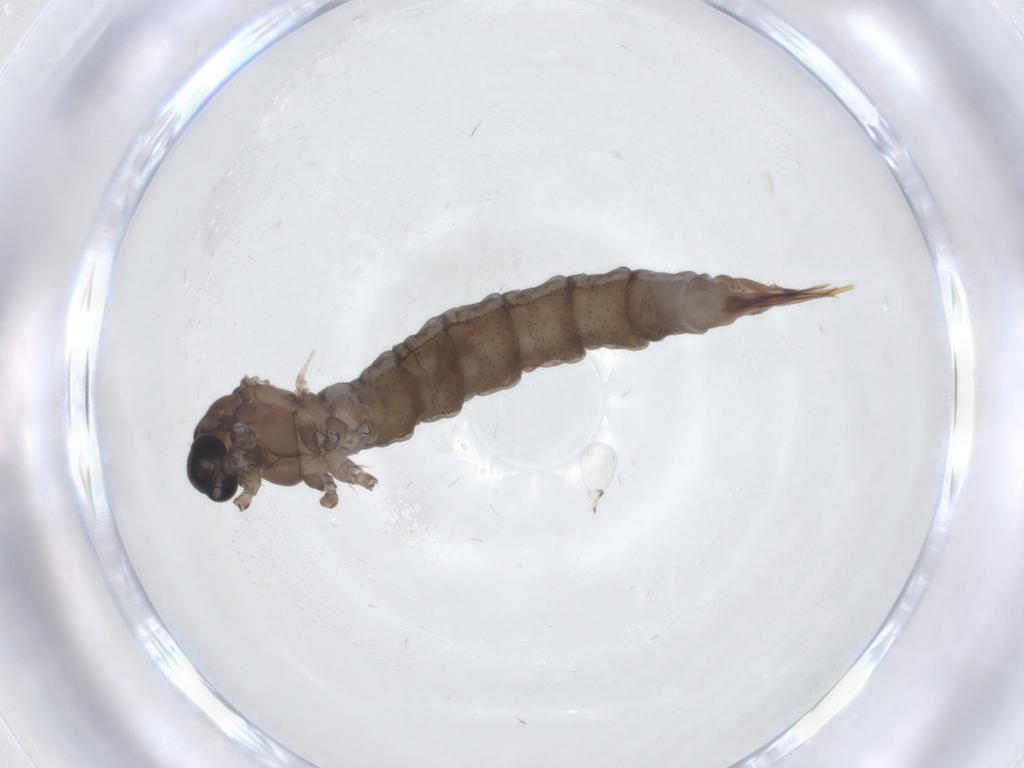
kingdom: Animalia
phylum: Arthropoda
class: Insecta
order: Diptera
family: Limoniidae
